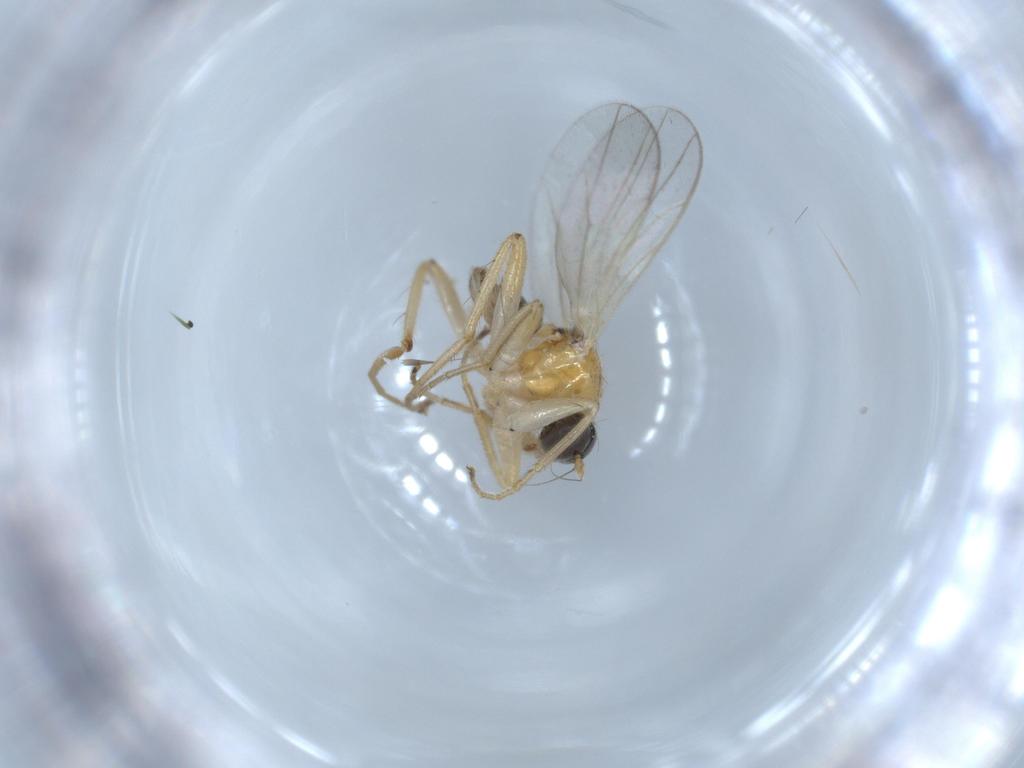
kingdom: Animalia
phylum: Arthropoda
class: Insecta
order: Diptera
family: Hybotidae
